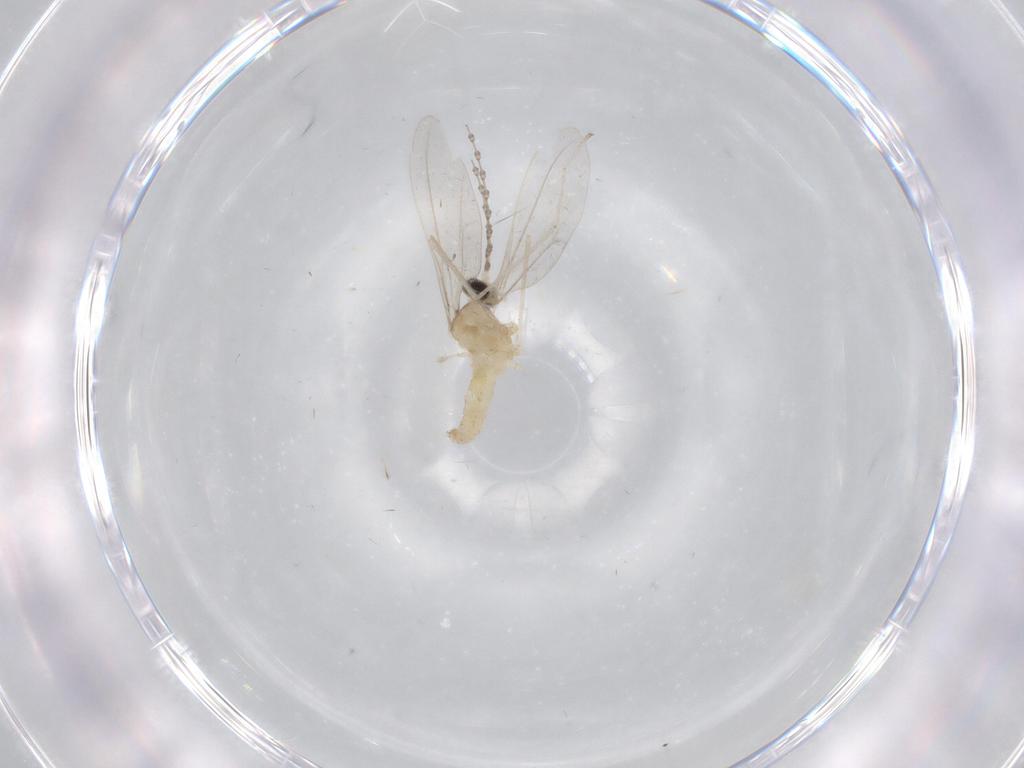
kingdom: Animalia
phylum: Arthropoda
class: Insecta
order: Diptera
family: Cecidomyiidae
